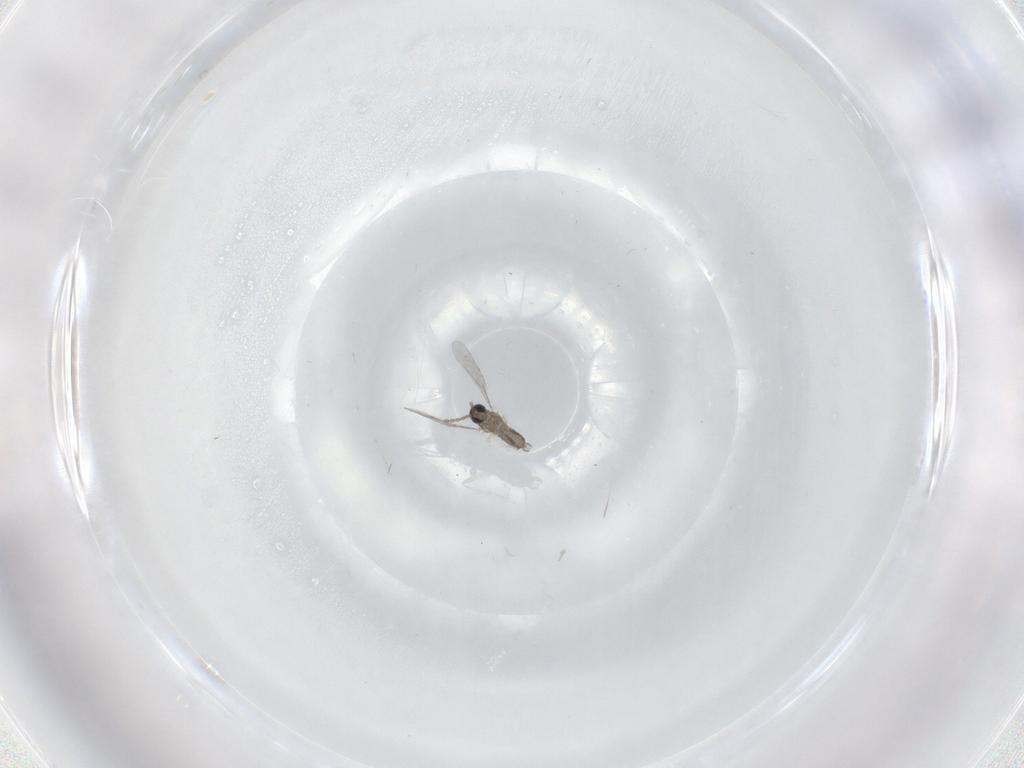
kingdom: Animalia
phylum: Arthropoda
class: Insecta
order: Diptera
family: Cecidomyiidae
